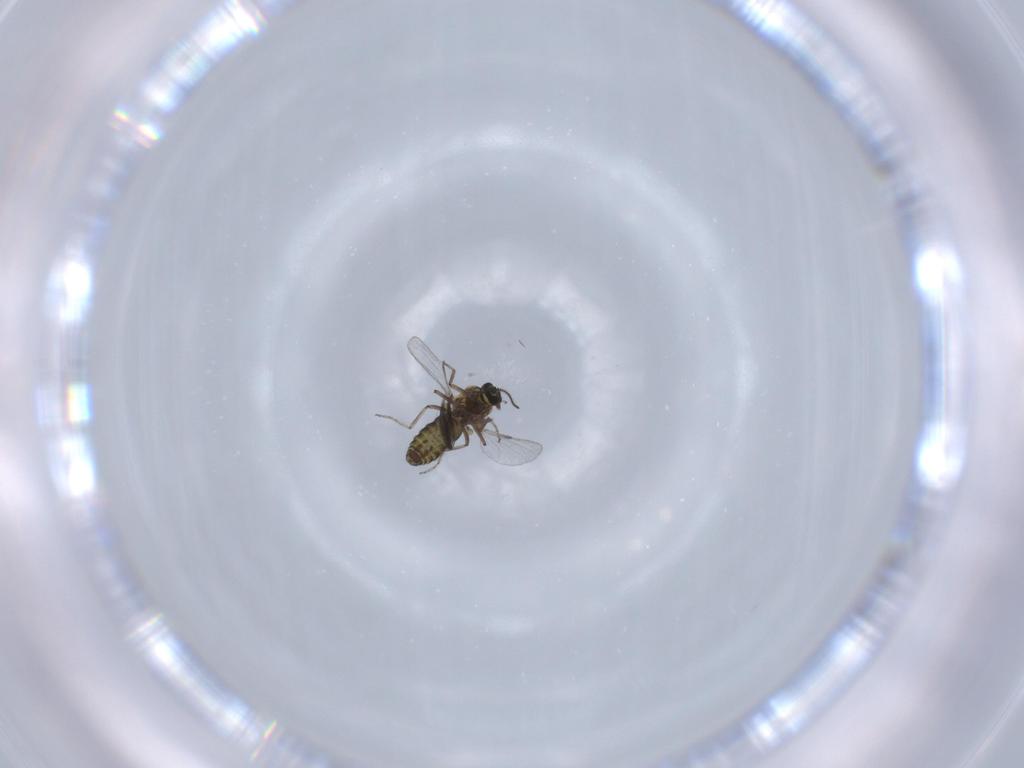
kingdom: Animalia
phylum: Arthropoda
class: Insecta
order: Diptera
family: Ceratopogonidae
